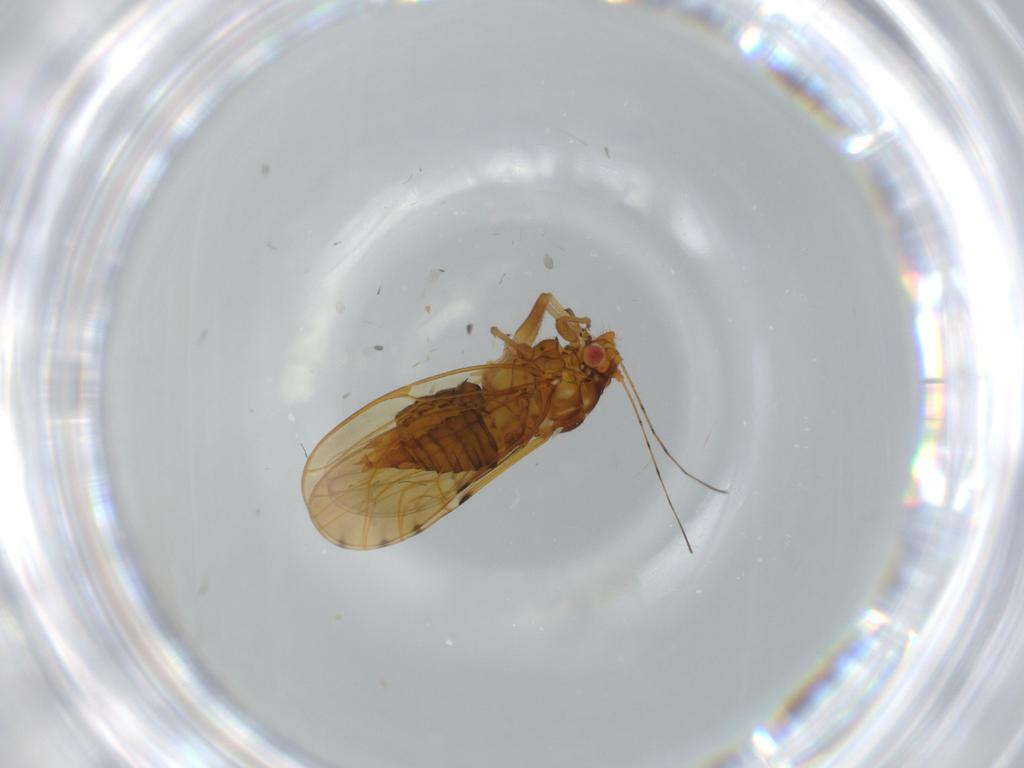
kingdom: Animalia
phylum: Arthropoda
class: Insecta
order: Hemiptera
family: Psylloidea_incertae_sedis
